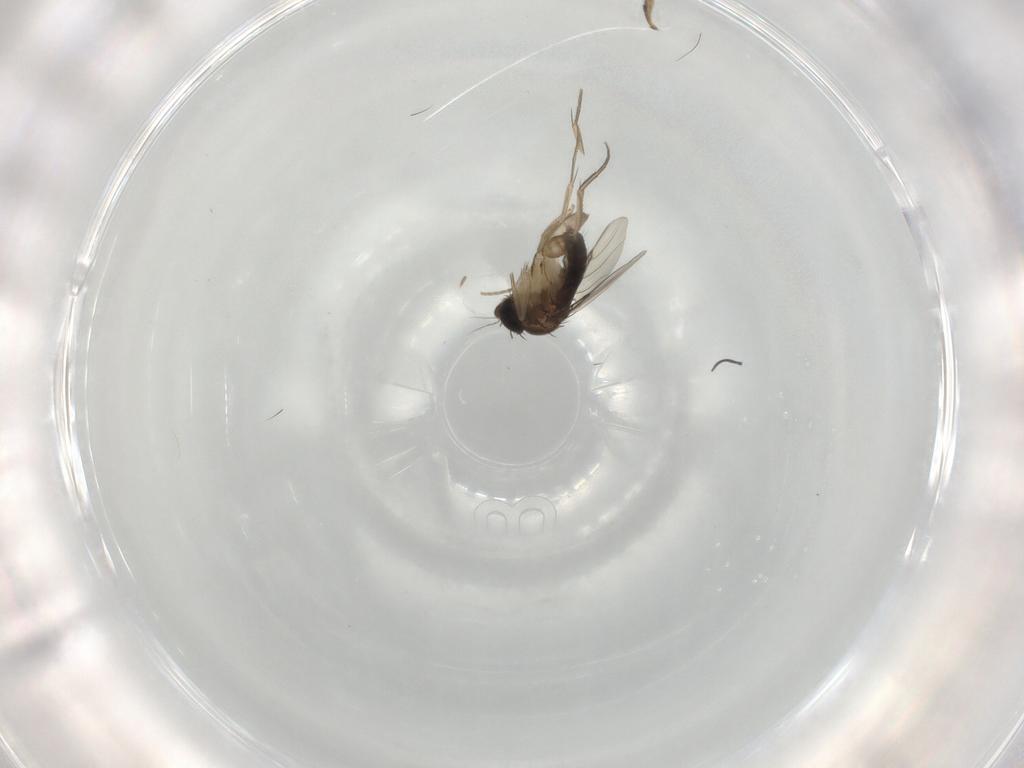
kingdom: Animalia
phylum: Arthropoda
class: Insecta
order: Diptera
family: Phoridae
